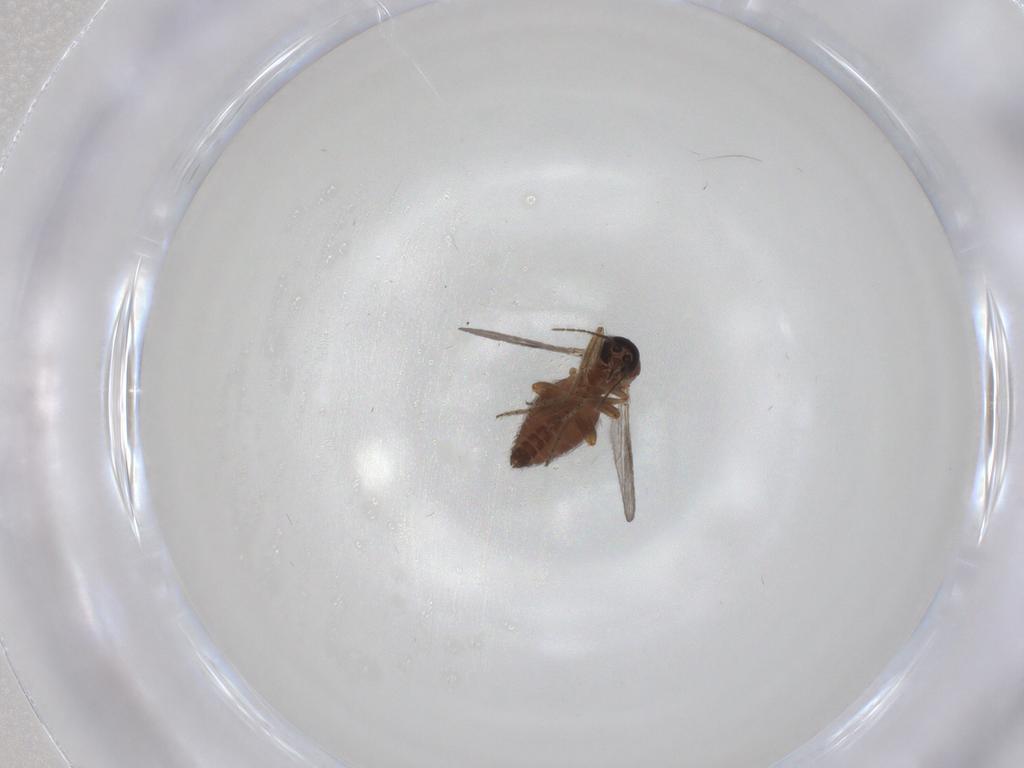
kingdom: Animalia
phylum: Arthropoda
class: Insecta
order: Diptera
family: Ceratopogonidae
